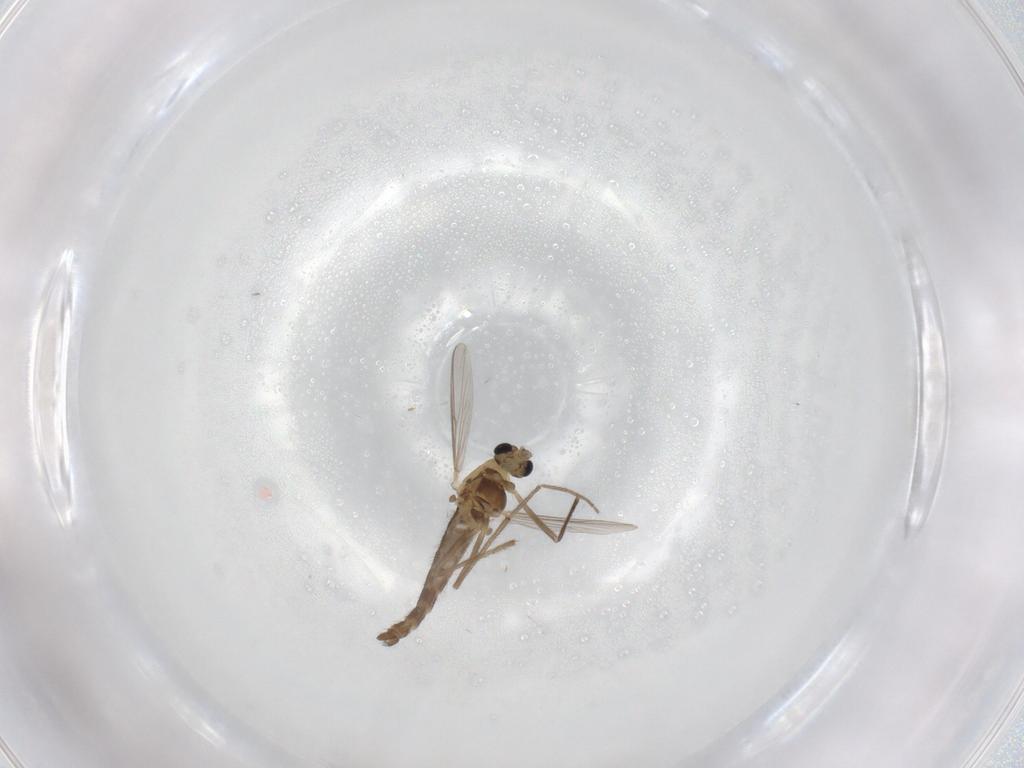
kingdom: Animalia
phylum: Arthropoda
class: Insecta
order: Diptera
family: Chironomidae
